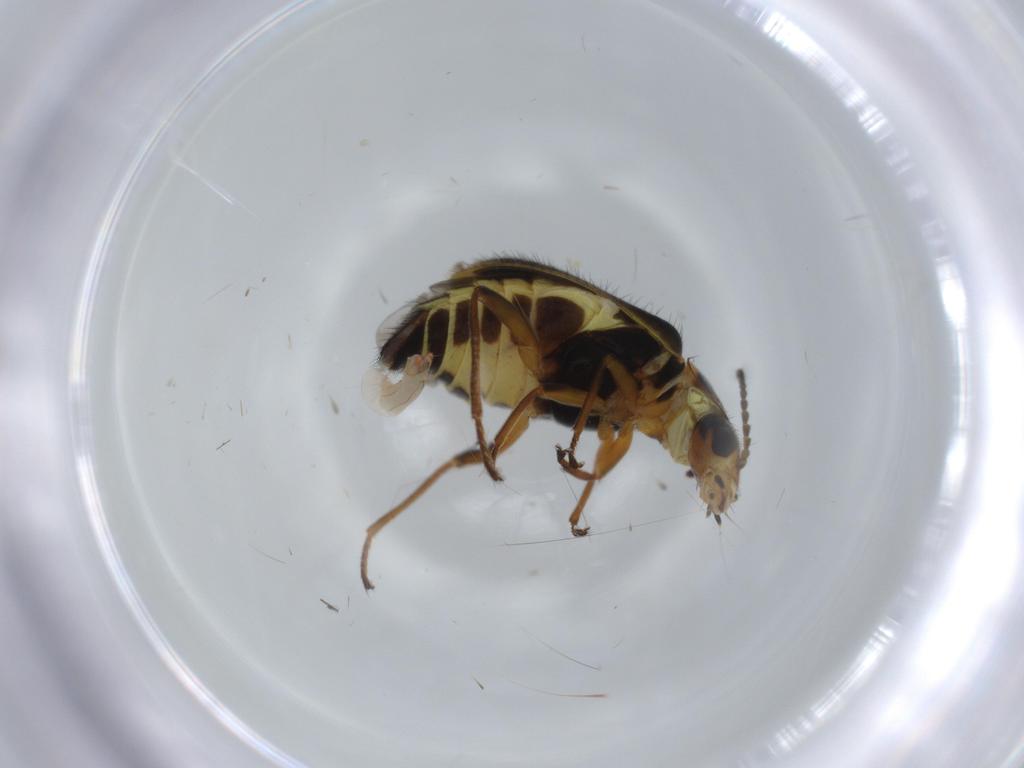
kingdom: Animalia
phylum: Arthropoda
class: Insecta
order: Coleoptera
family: Melyridae
